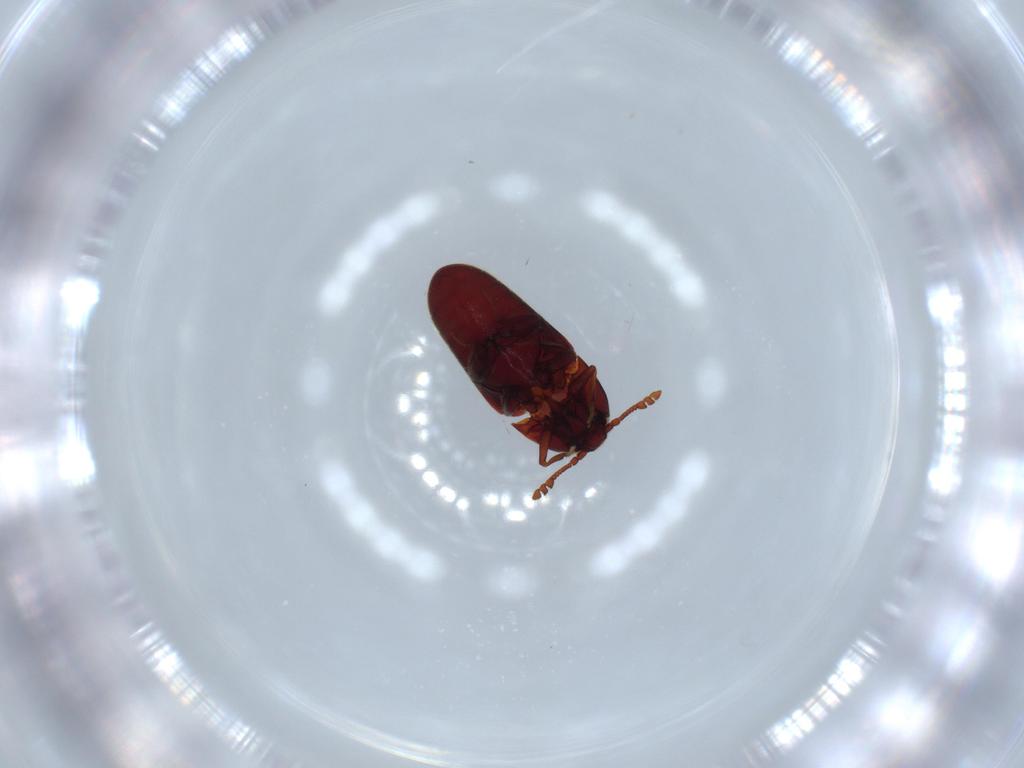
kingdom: Animalia
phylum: Arthropoda
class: Insecta
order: Coleoptera
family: Throscidae
